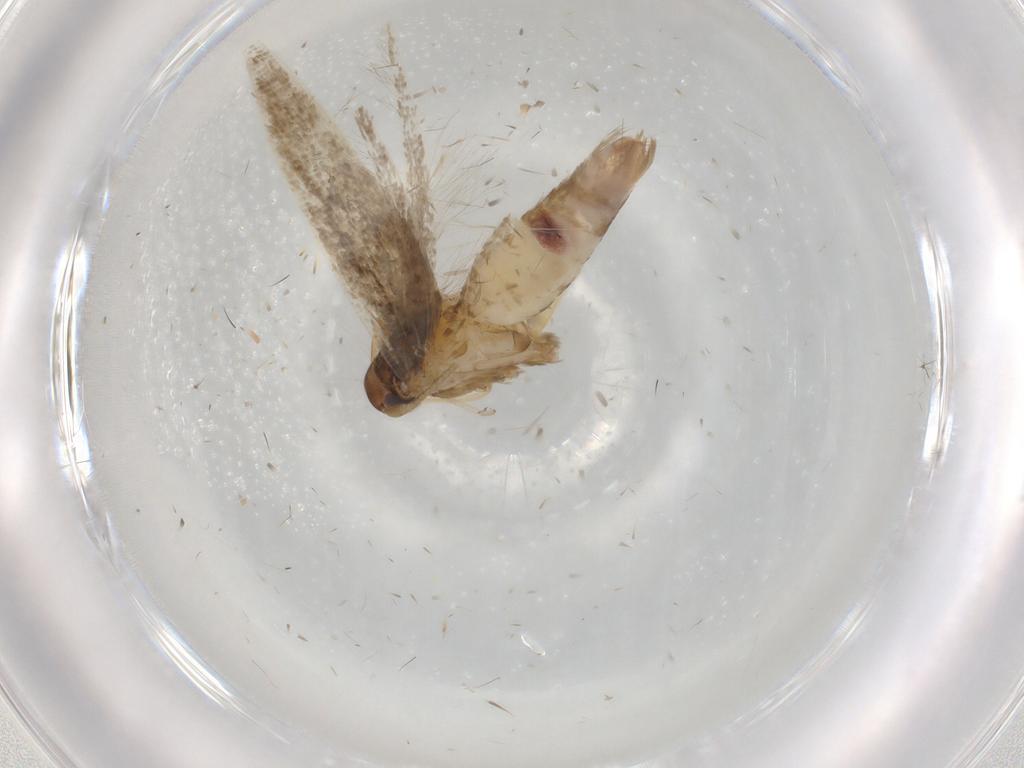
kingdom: Animalia
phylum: Arthropoda
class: Insecta
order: Lepidoptera
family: Cosmopterigidae
